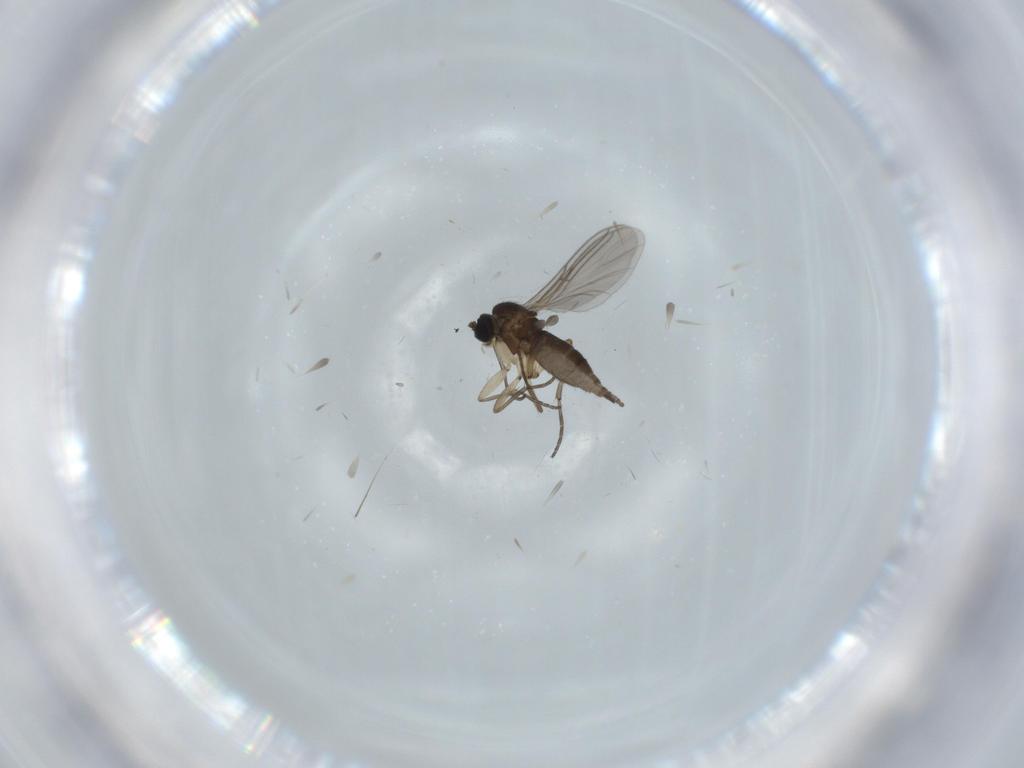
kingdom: Animalia
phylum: Arthropoda
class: Insecta
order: Diptera
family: Sciaridae
